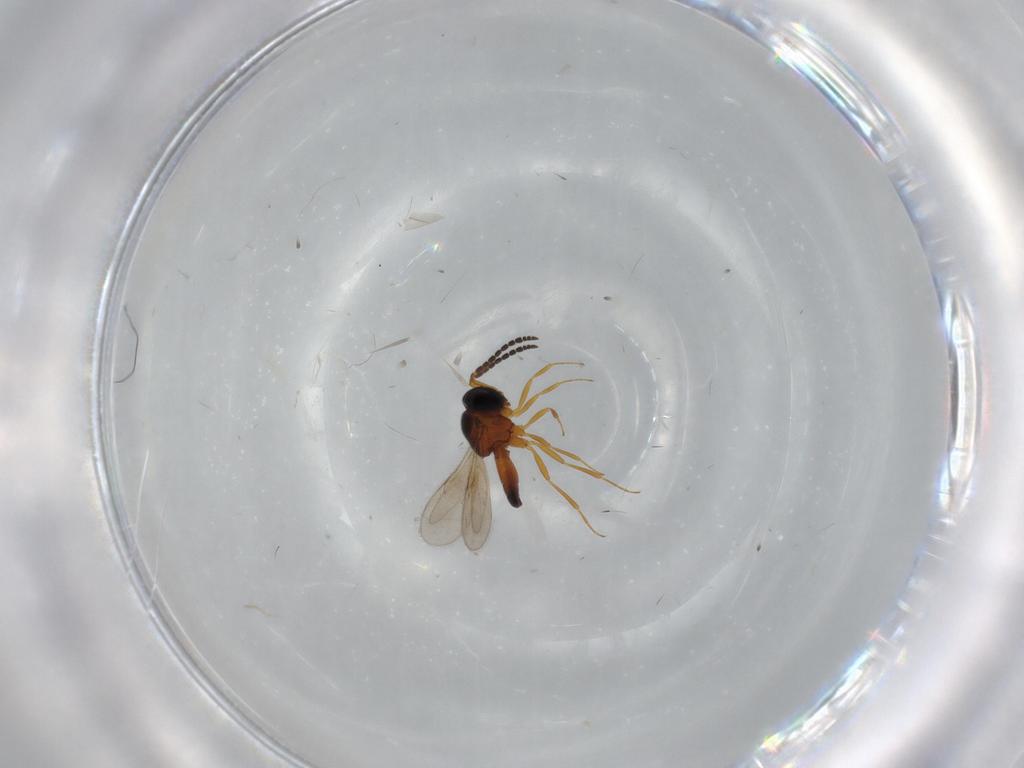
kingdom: Animalia
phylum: Arthropoda
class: Insecta
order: Hymenoptera
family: Scelionidae
